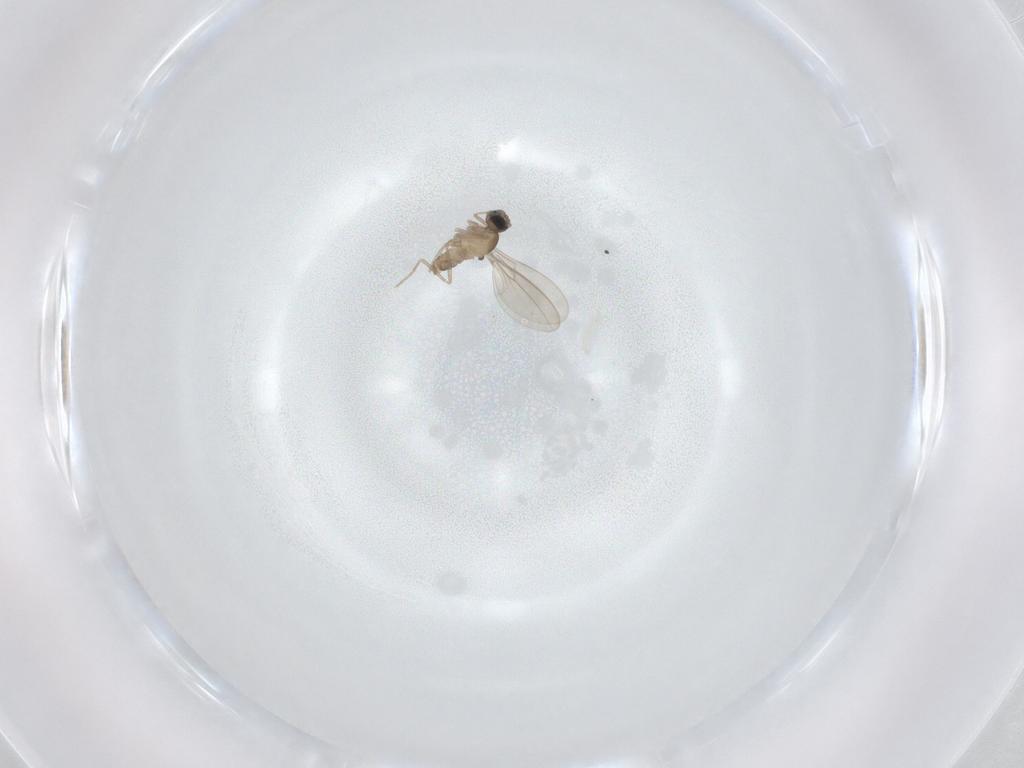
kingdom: Animalia
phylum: Arthropoda
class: Insecta
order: Diptera
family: Cecidomyiidae
